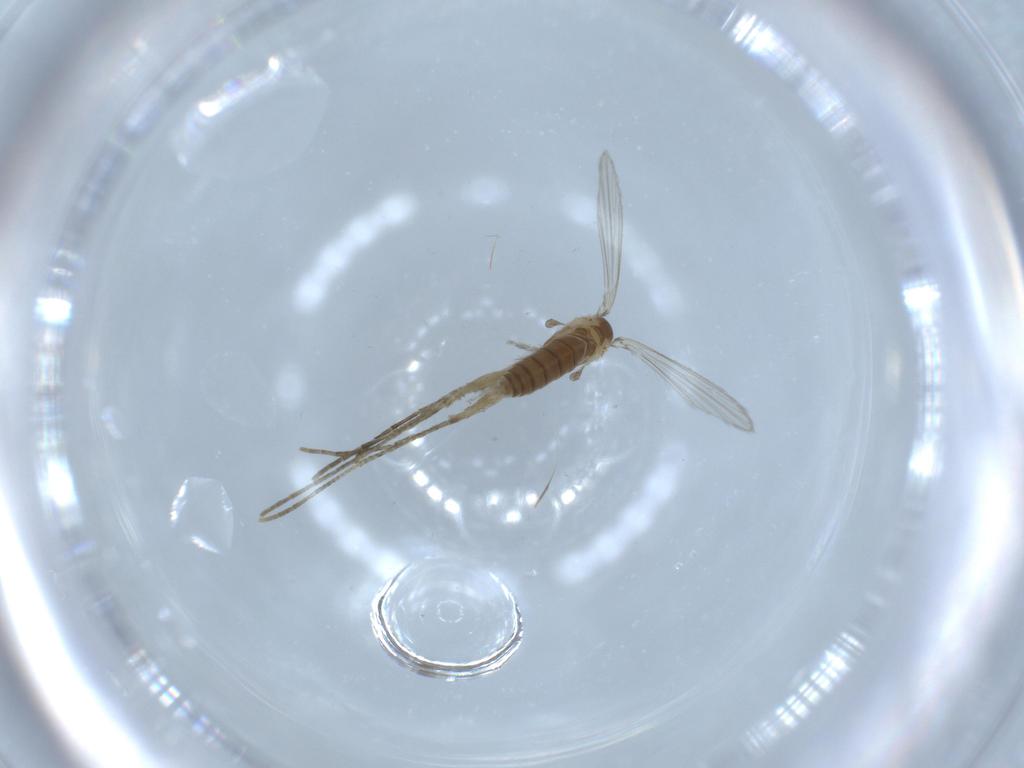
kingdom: Animalia
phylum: Arthropoda
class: Insecta
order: Diptera
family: Psychodidae
